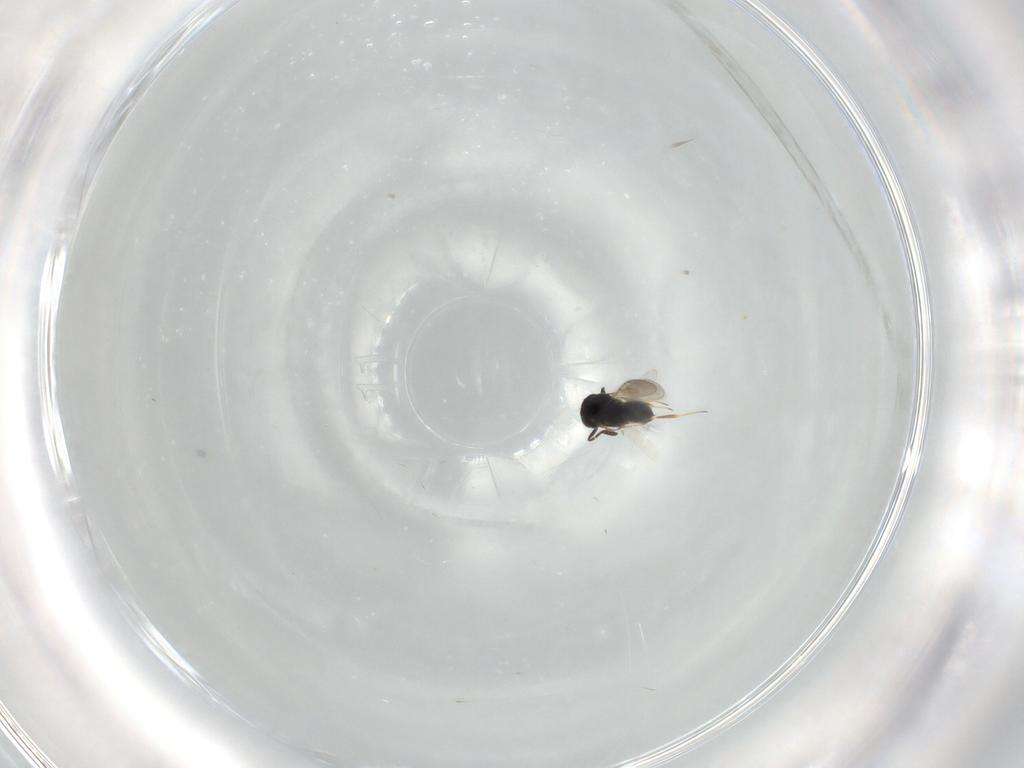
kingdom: Animalia
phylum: Arthropoda
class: Insecta
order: Hymenoptera
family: Scelionidae
